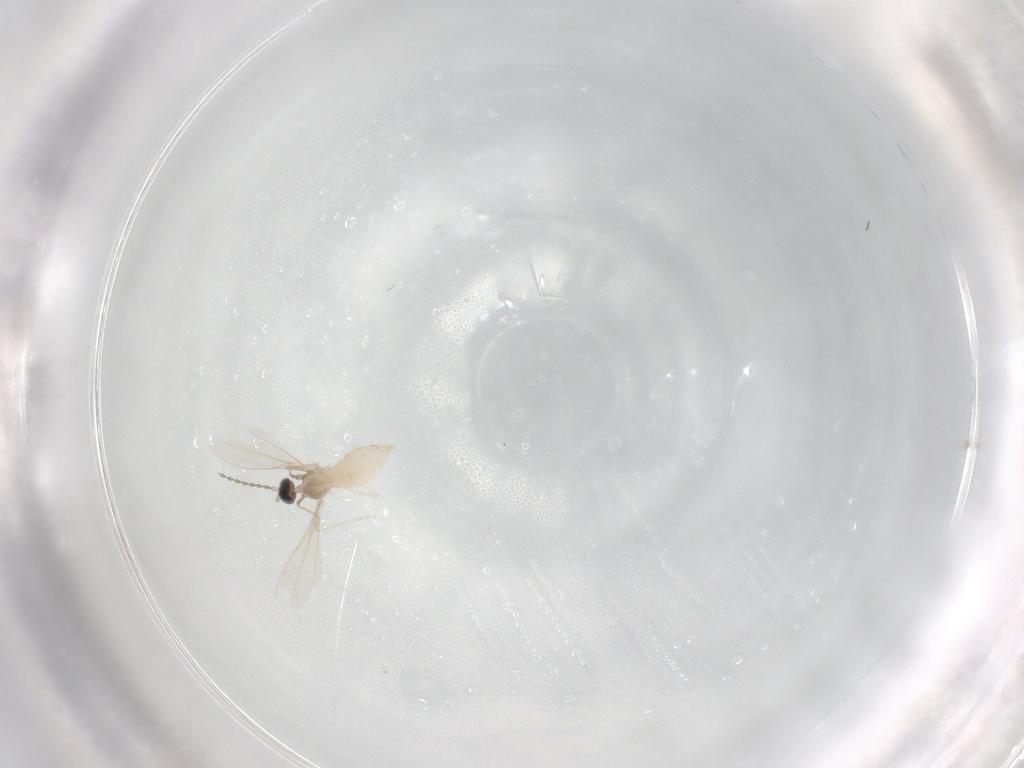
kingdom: Animalia
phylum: Arthropoda
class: Insecta
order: Diptera
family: Cecidomyiidae
